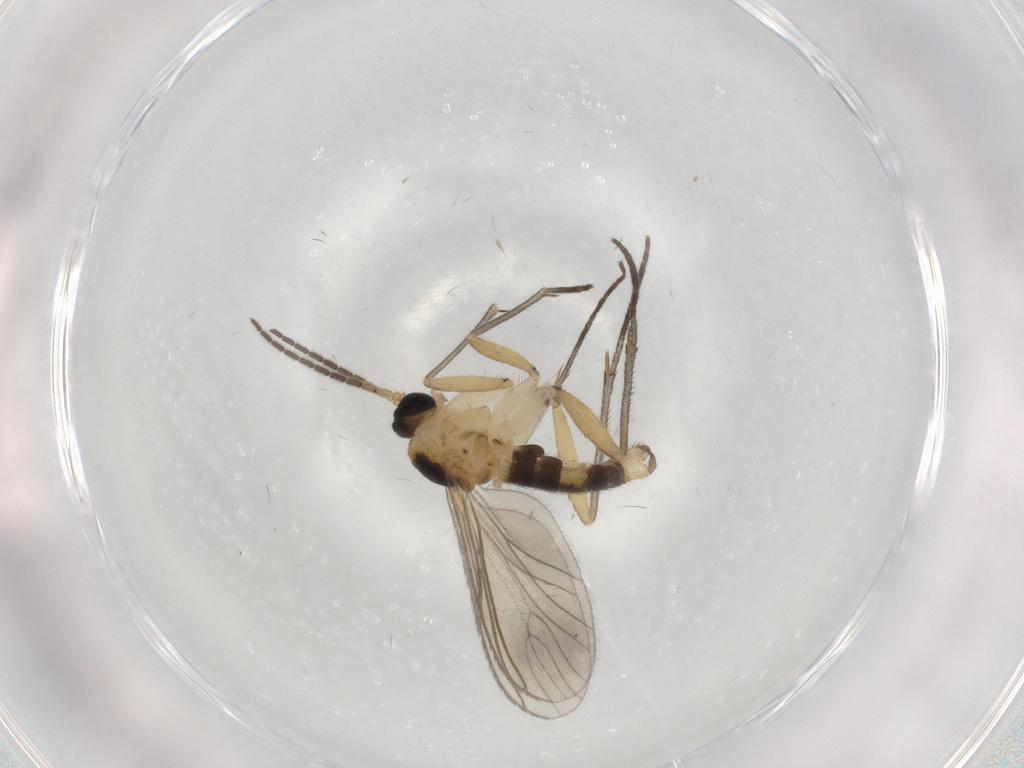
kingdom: Animalia
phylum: Arthropoda
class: Insecta
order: Diptera
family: Sciaridae
